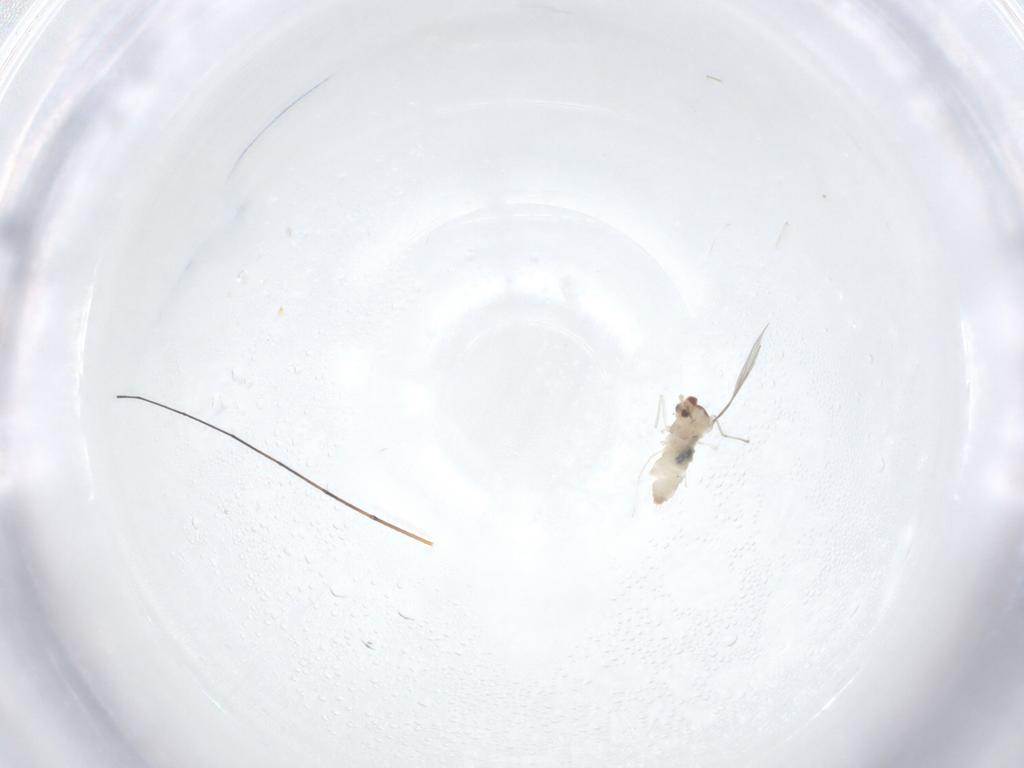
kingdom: Animalia
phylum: Arthropoda
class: Insecta
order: Diptera
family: Cecidomyiidae
